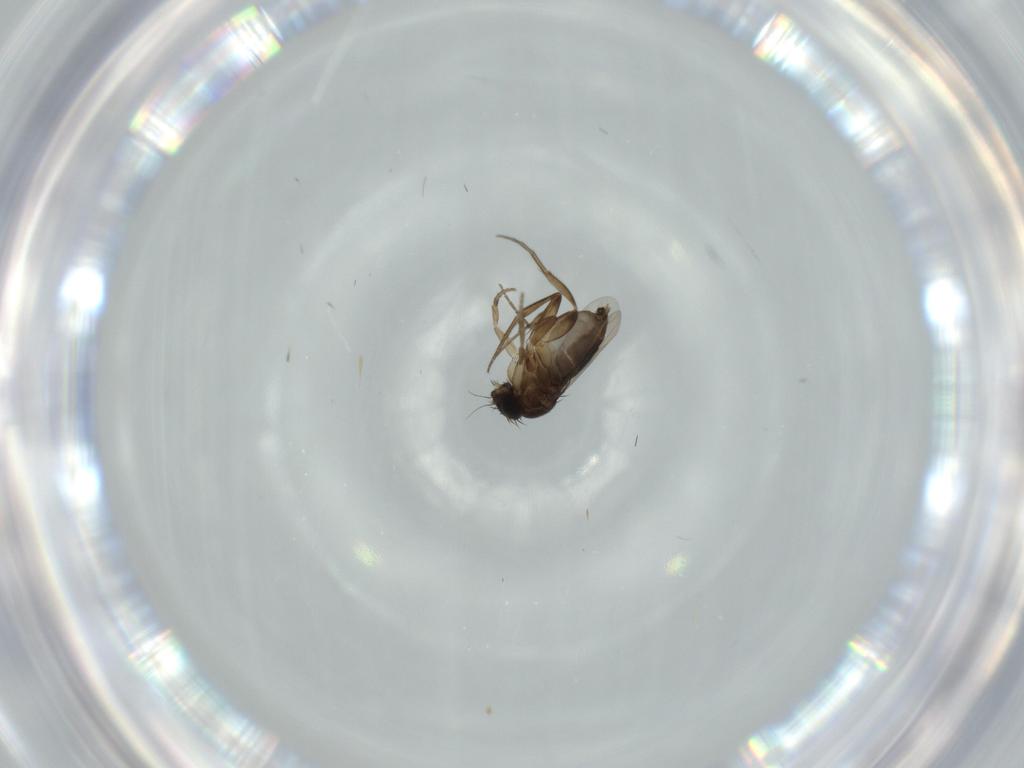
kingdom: Animalia
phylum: Arthropoda
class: Insecta
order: Diptera
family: Phoridae
